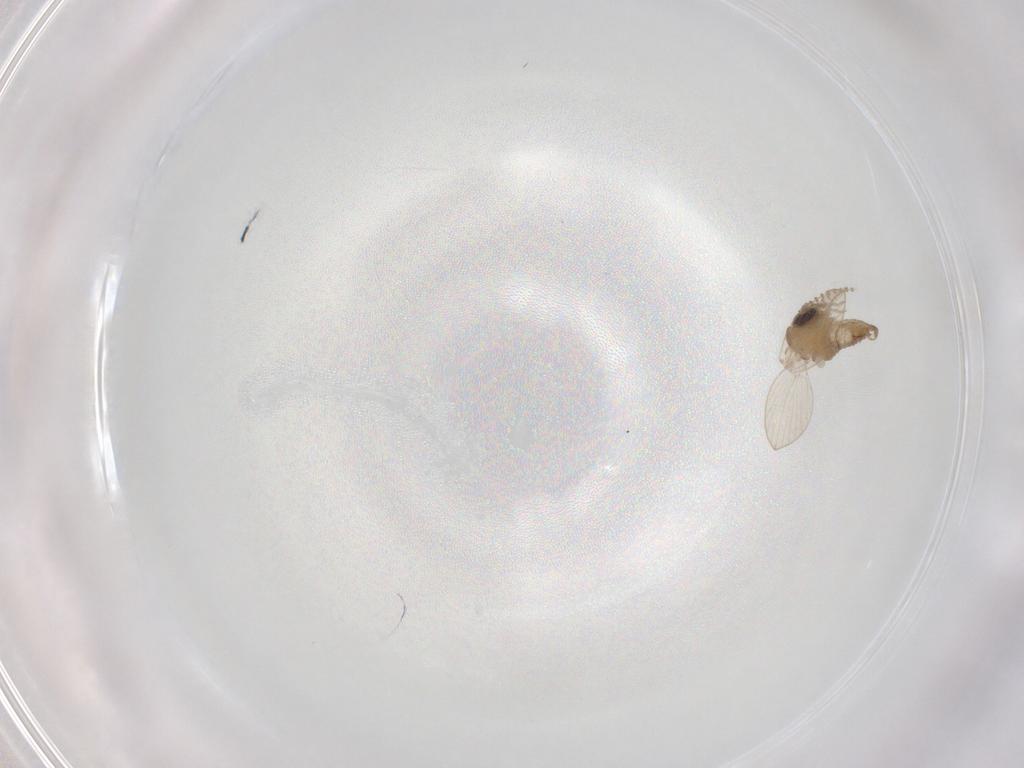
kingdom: Animalia
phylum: Arthropoda
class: Insecta
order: Diptera
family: Psychodidae
